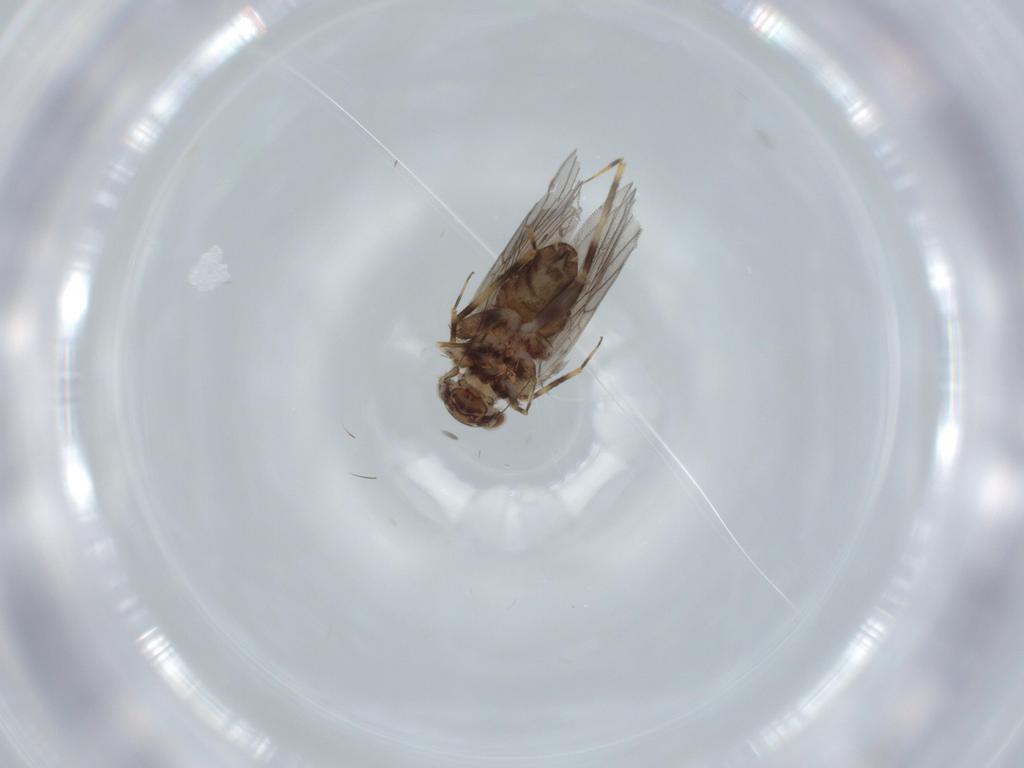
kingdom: Animalia
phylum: Arthropoda
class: Insecta
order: Psocodea
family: Lepidopsocidae
